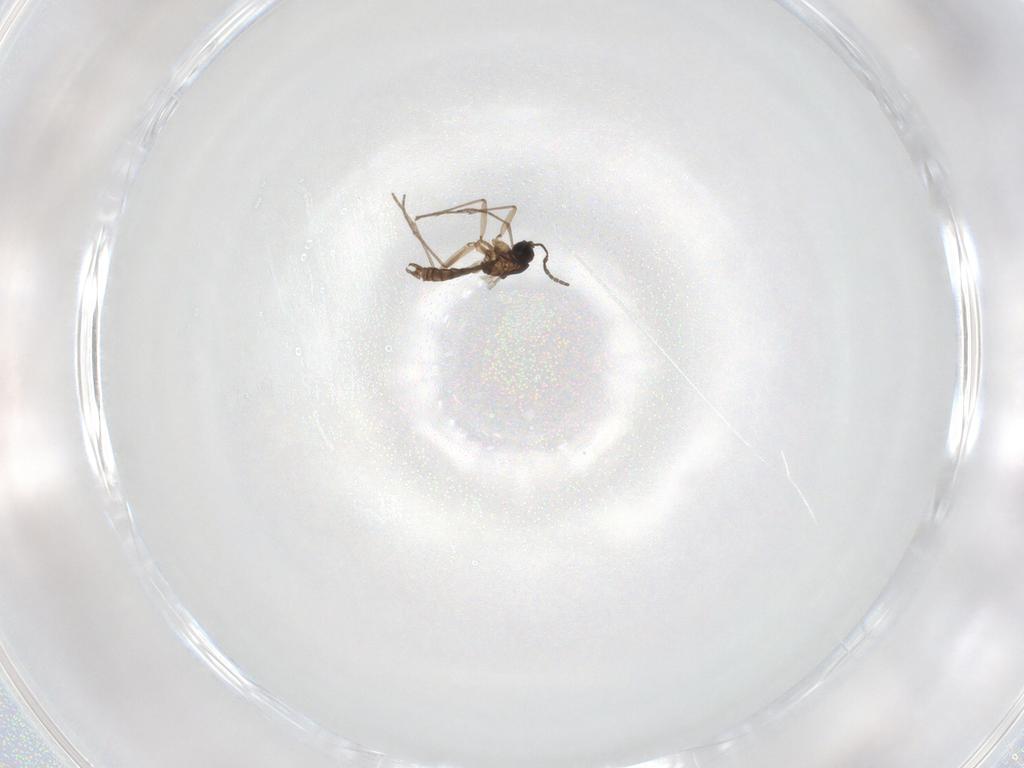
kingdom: Animalia
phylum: Arthropoda
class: Insecta
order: Diptera
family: Sciaridae
